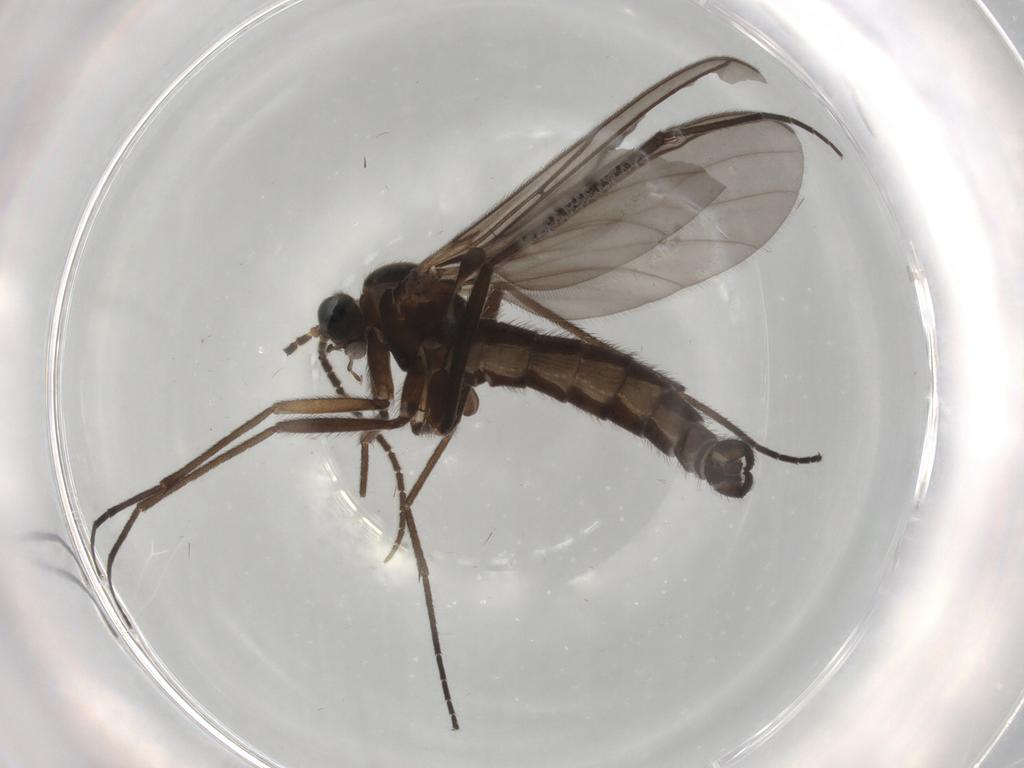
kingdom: Animalia
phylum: Arthropoda
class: Insecta
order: Diptera
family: Sciaridae
